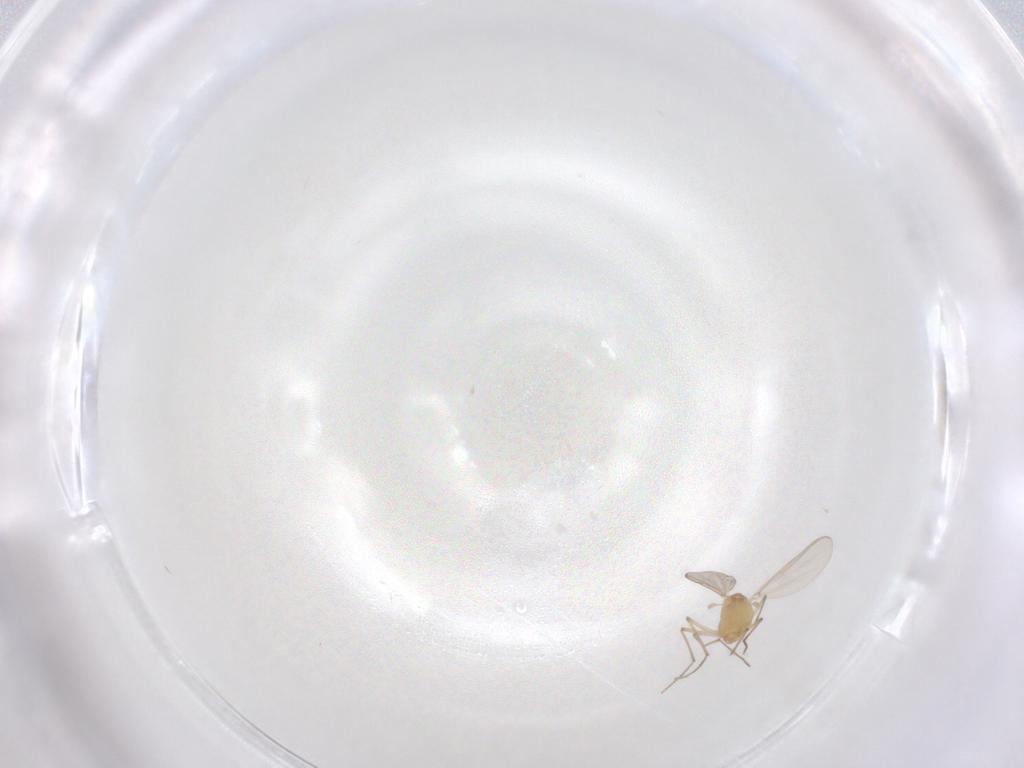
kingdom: Animalia
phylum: Arthropoda
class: Insecta
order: Diptera
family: Chironomidae
